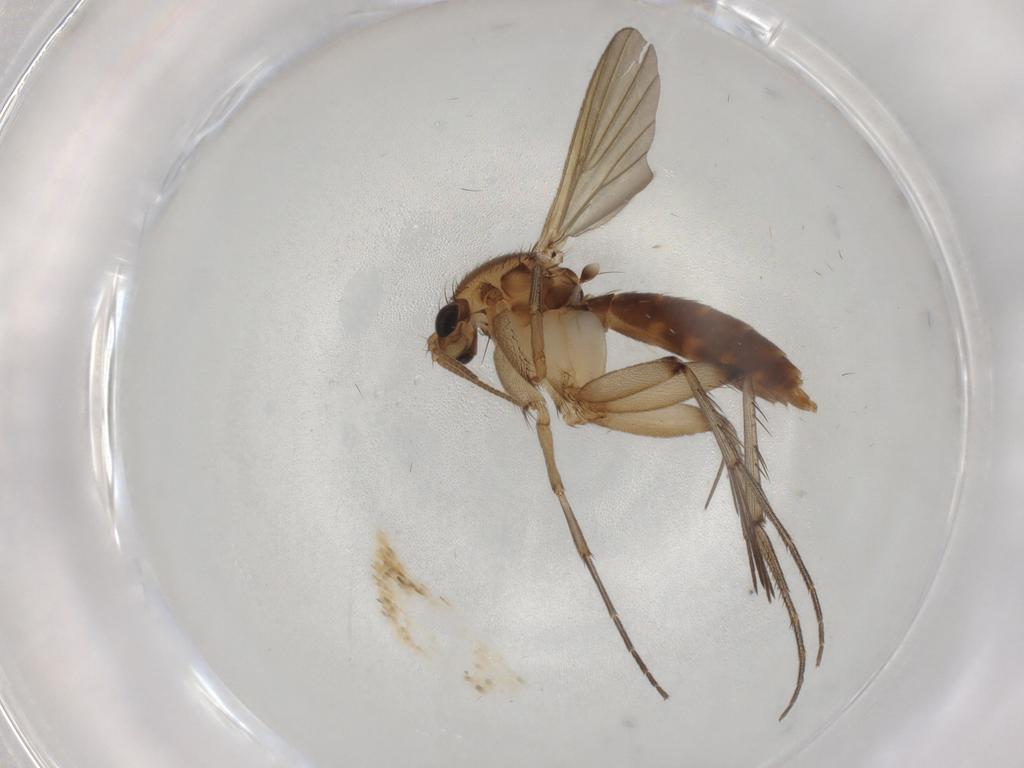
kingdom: Animalia
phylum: Arthropoda
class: Insecta
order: Diptera
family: Mycetophilidae
